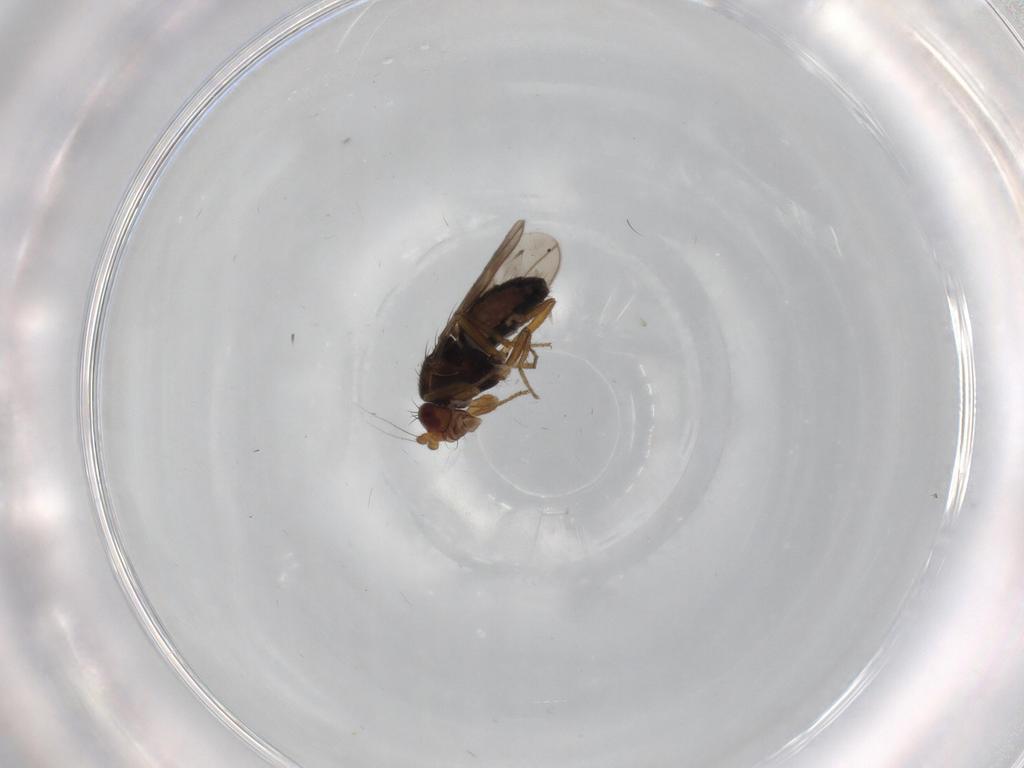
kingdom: Animalia
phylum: Arthropoda
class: Insecta
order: Diptera
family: Sphaeroceridae
